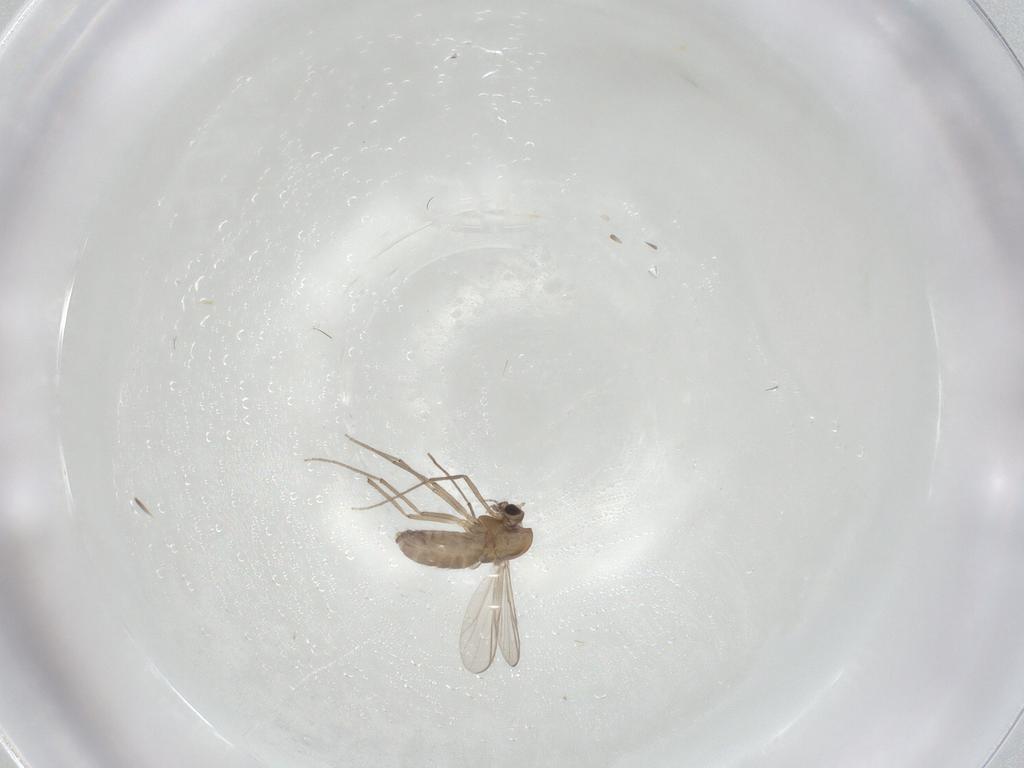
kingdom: Animalia
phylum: Arthropoda
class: Insecta
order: Diptera
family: Chironomidae
